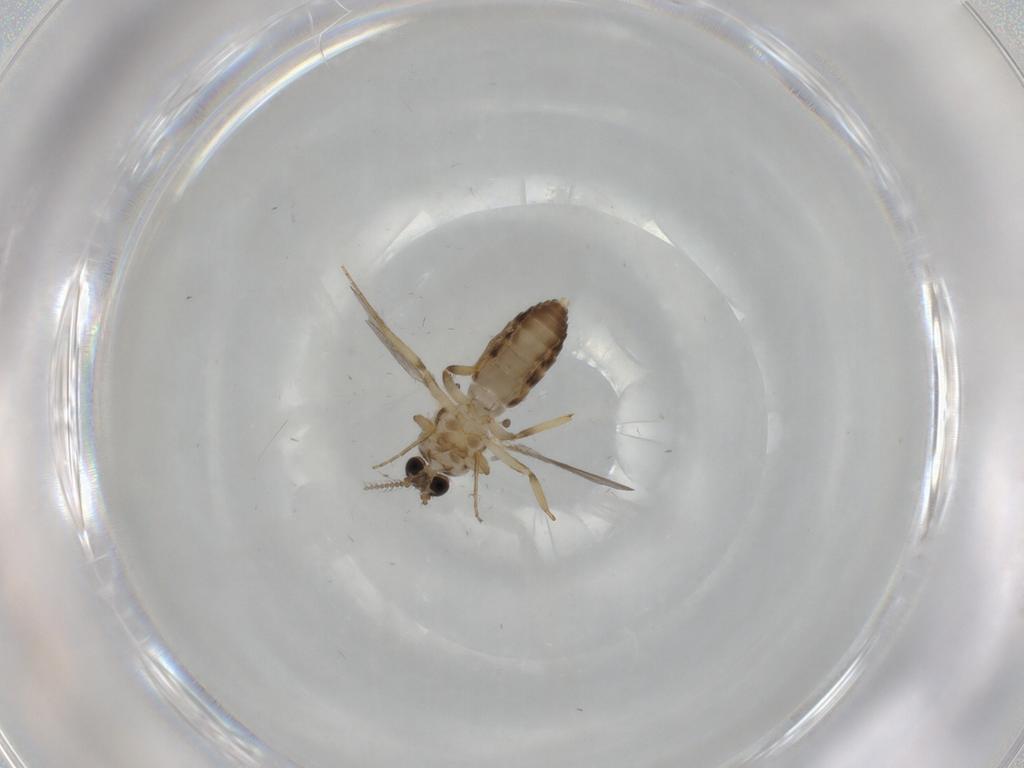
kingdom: Animalia
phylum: Arthropoda
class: Insecta
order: Diptera
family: Ceratopogonidae
